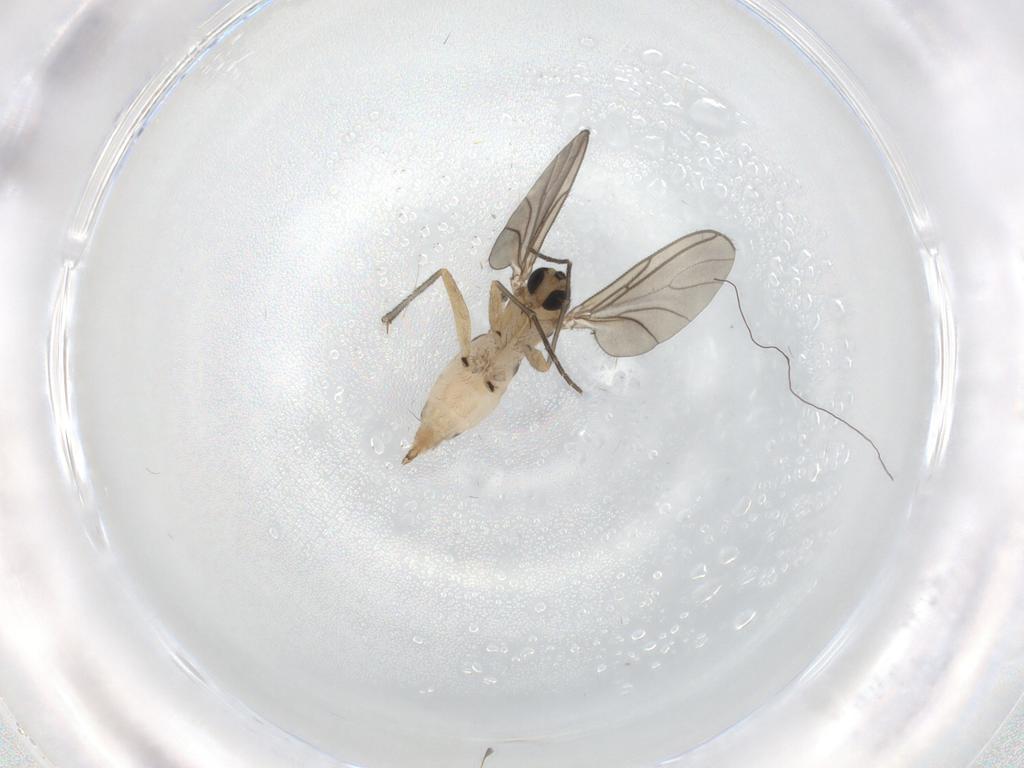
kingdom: Animalia
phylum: Arthropoda
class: Insecta
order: Diptera
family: Sciaridae
